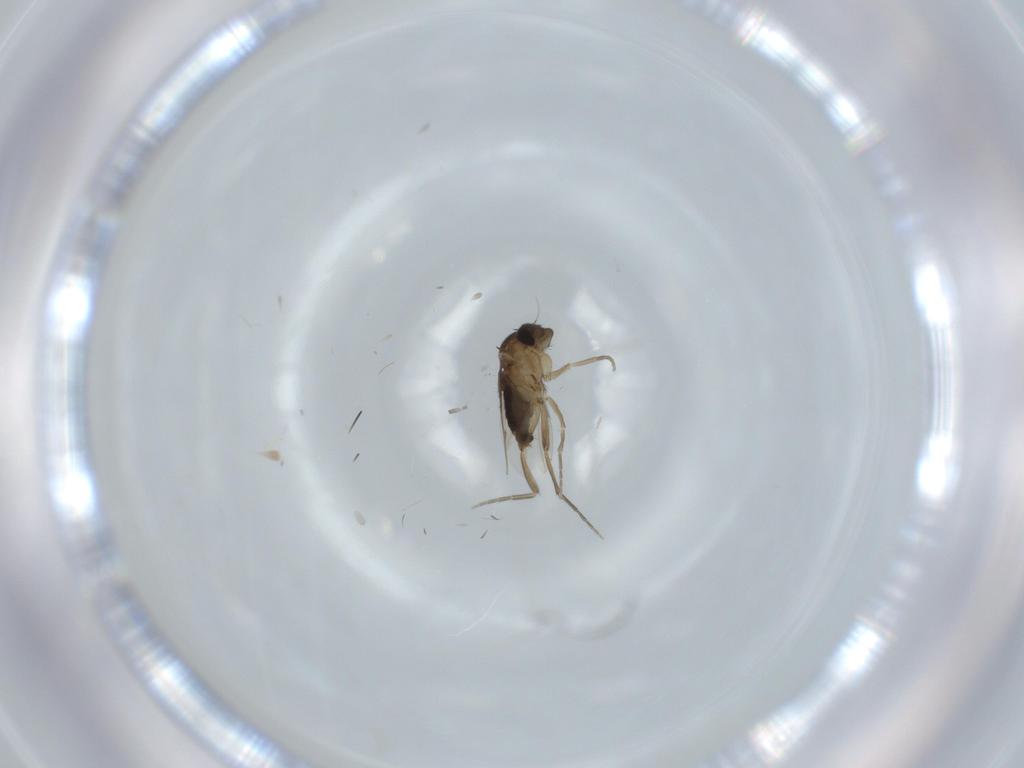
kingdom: Animalia
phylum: Arthropoda
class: Insecta
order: Diptera
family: Phoridae
